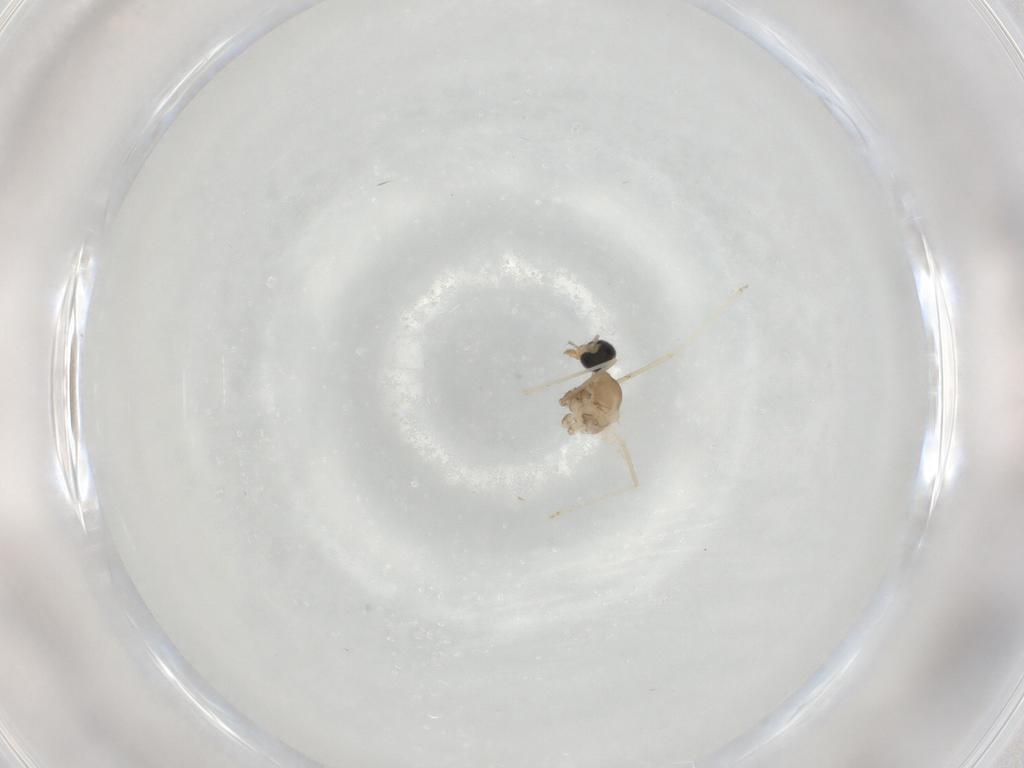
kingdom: Animalia
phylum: Arthropoda
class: Insecta
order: Diptera
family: Cecidomyiidae
